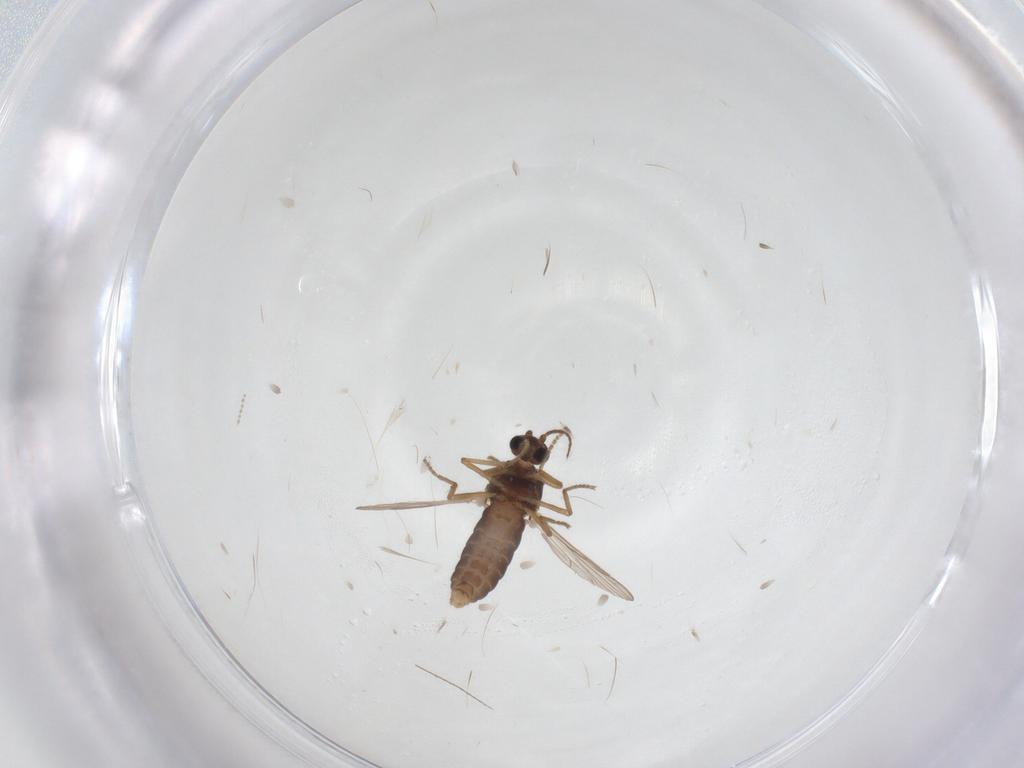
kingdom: Animalia
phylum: Arthropoda
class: Insecta
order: Diptera
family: Ceratopogonidae
